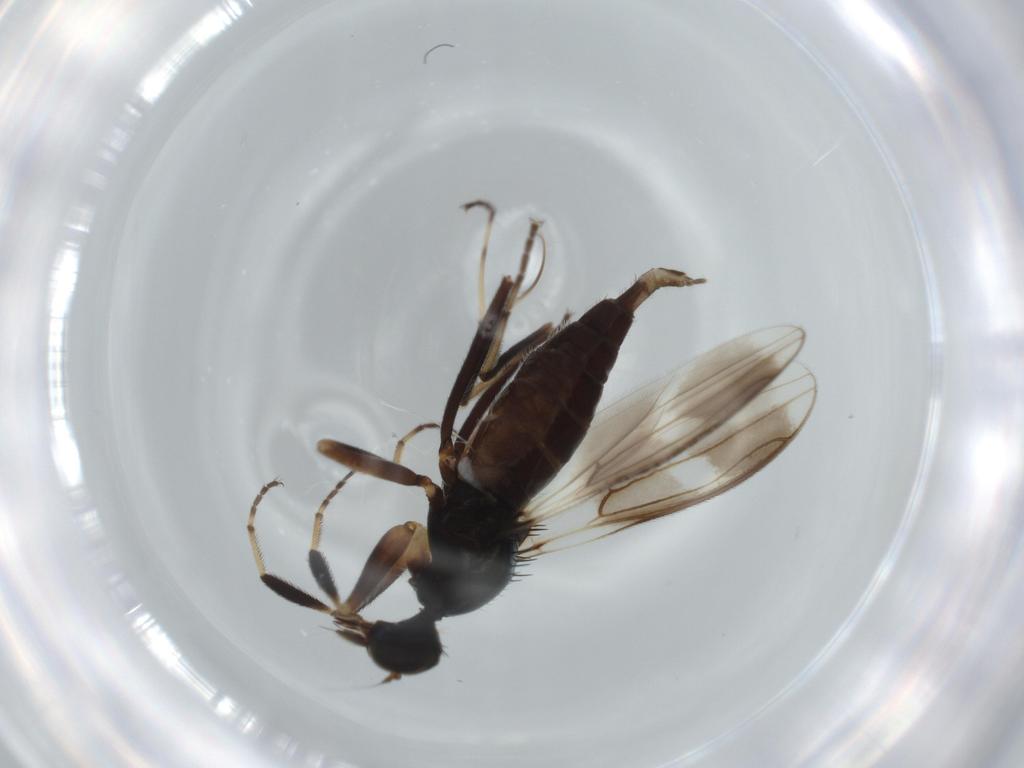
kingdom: Animalia
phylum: Arthropoda
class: Insecta
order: Diptera
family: Hybotidae
